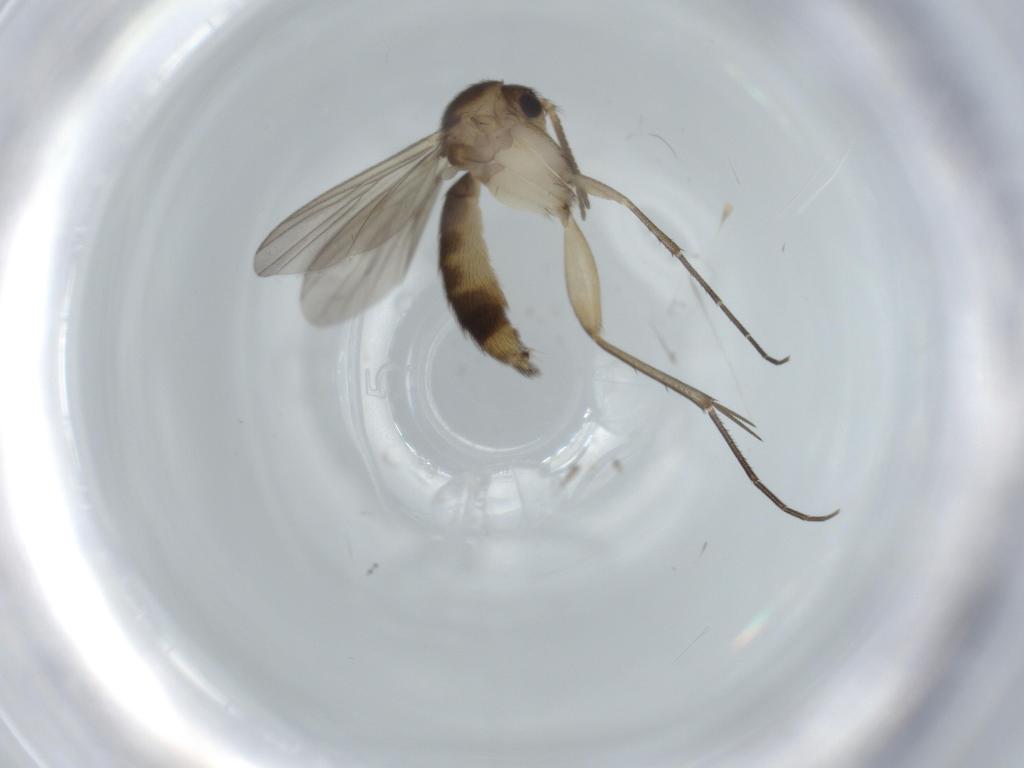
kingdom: Animalia
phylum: Arthropoda
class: Insecta
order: Diptera
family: Mycetophilidae
